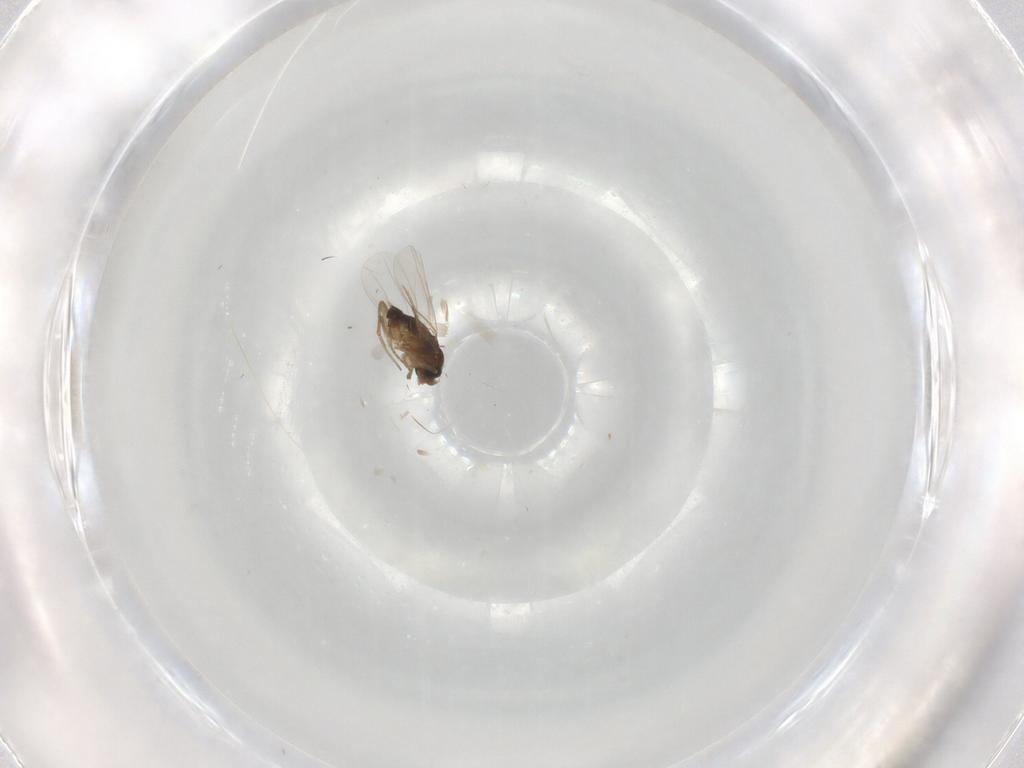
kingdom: Animalia
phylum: Arthropoda
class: Insecta
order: Diptera
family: Phoridae
